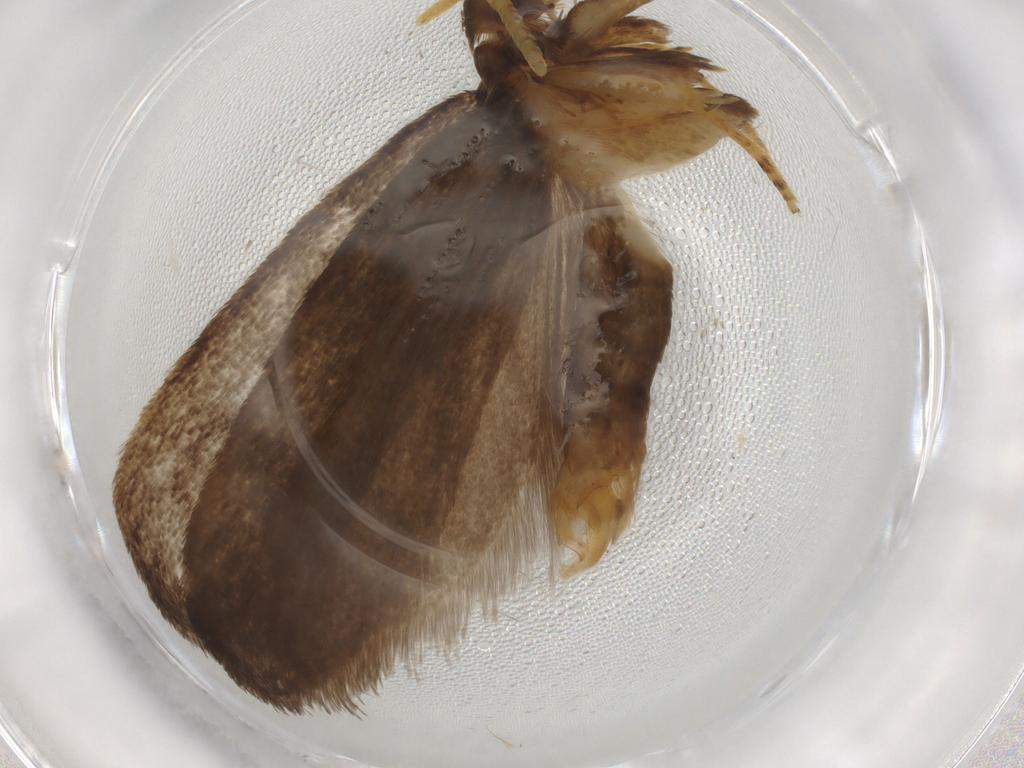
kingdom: Animalia
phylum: Arthropoda
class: Insecta
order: Lepidoptera
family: Lecithoceridae
